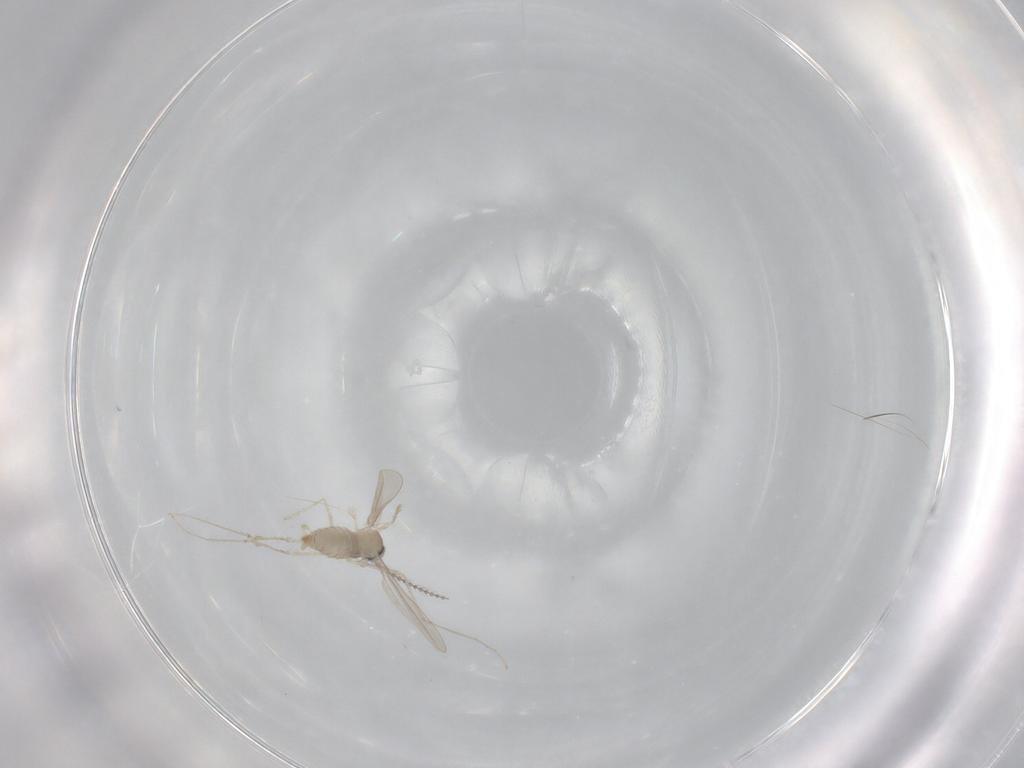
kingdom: Animalia
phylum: Arthropoda
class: Insecta
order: Diptera
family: Cecidomyiidae
